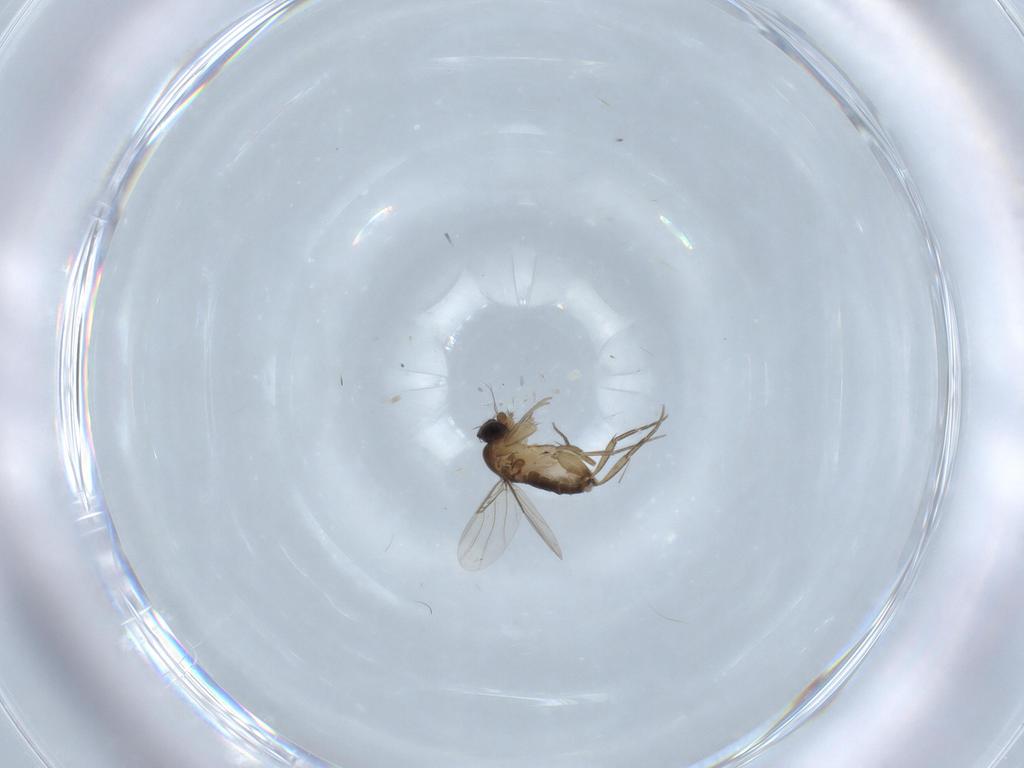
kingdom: Animalia
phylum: Arthropoda
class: Insecta
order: Diptera
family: Phoridae
